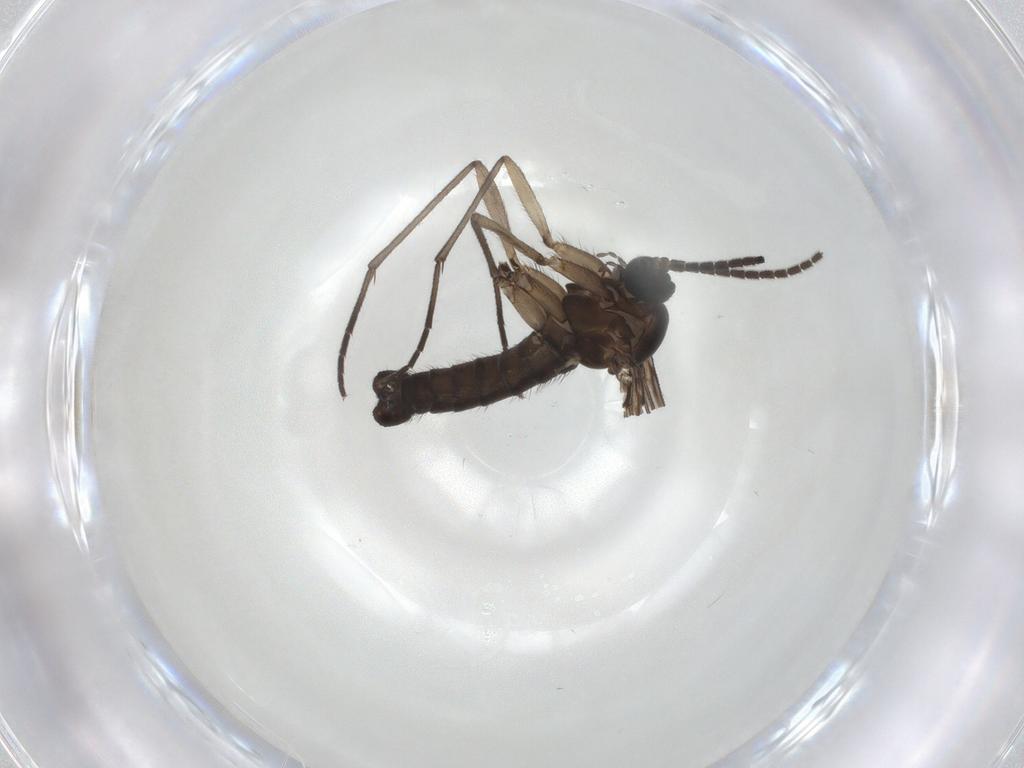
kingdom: Animalia
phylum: Arthropoda
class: Insecta
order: Diptera
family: Sciaridae
